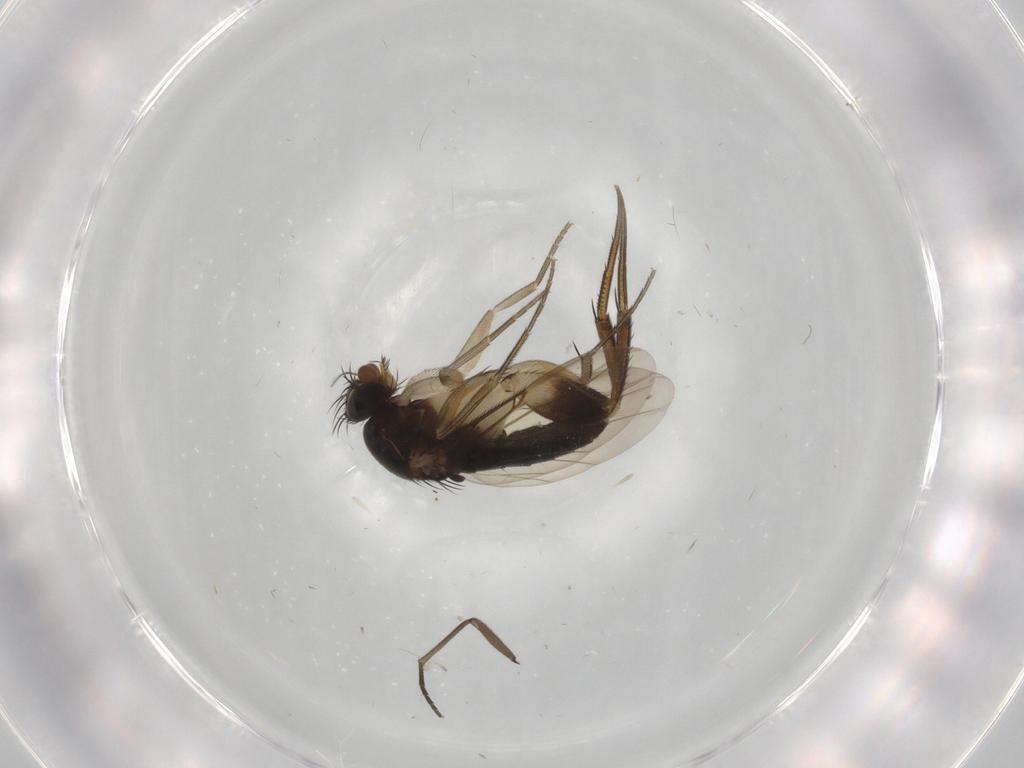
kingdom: Animalia
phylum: Arthropoda
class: Insecta
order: Diptera
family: Phoridae
